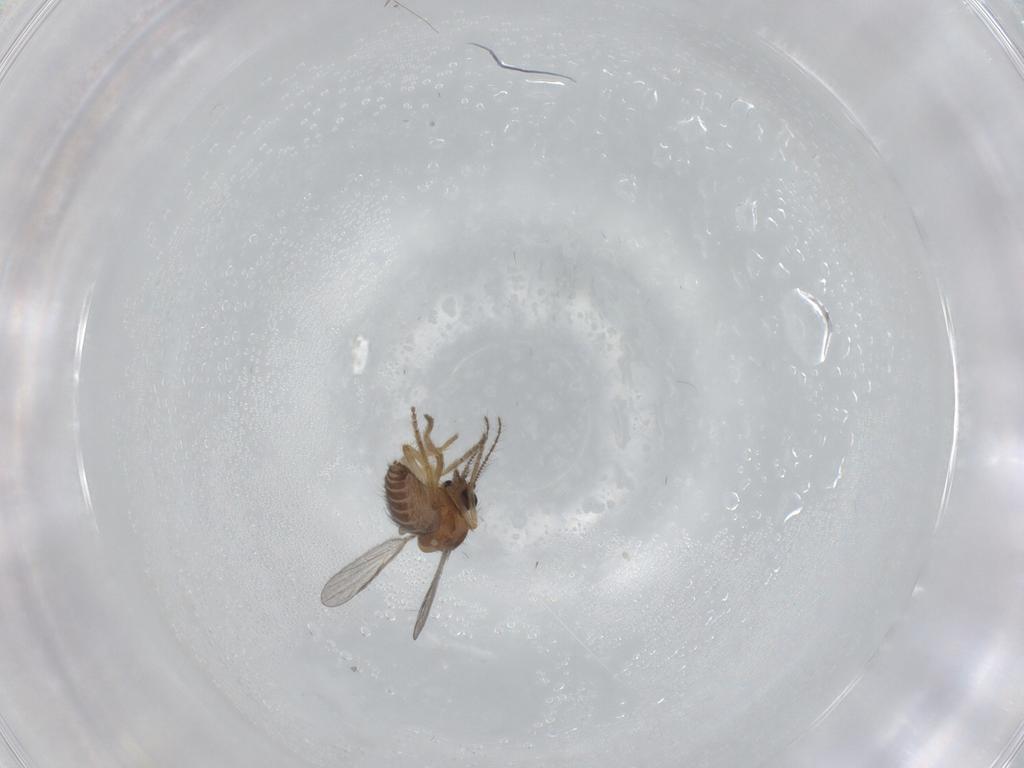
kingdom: Animalia
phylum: Arthropoda
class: Insecta
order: Diptera
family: Ceratopogonidae
